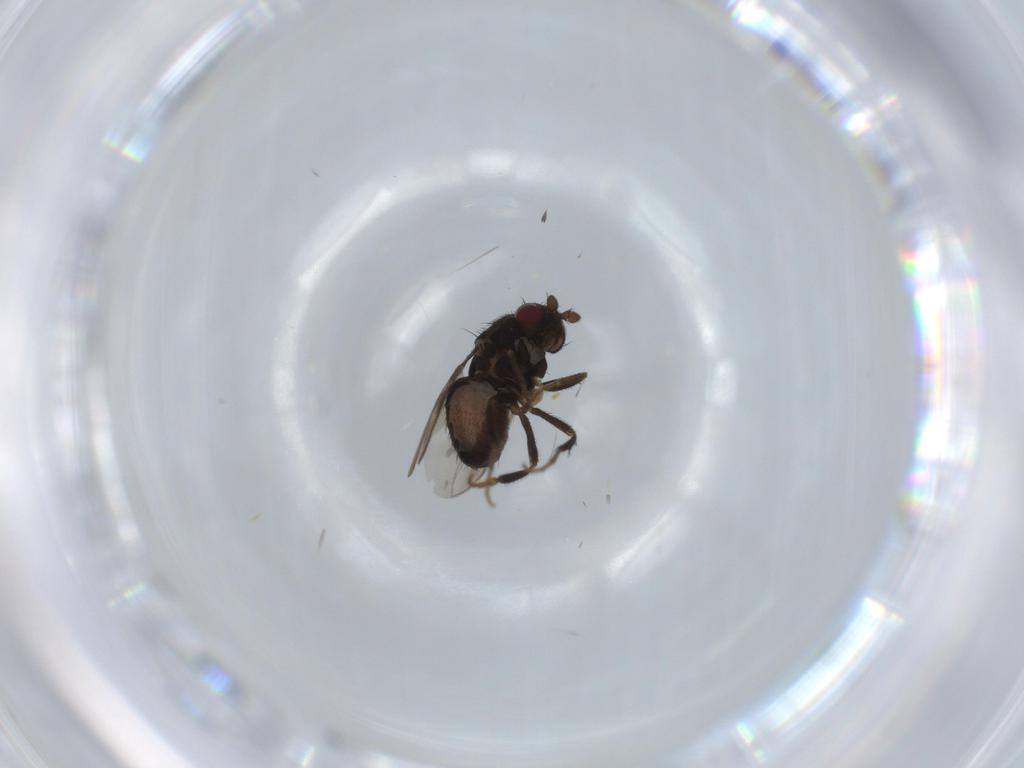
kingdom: Animalia
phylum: Arthropoda
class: Insecta
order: Diptera
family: Sphaeroceridae
